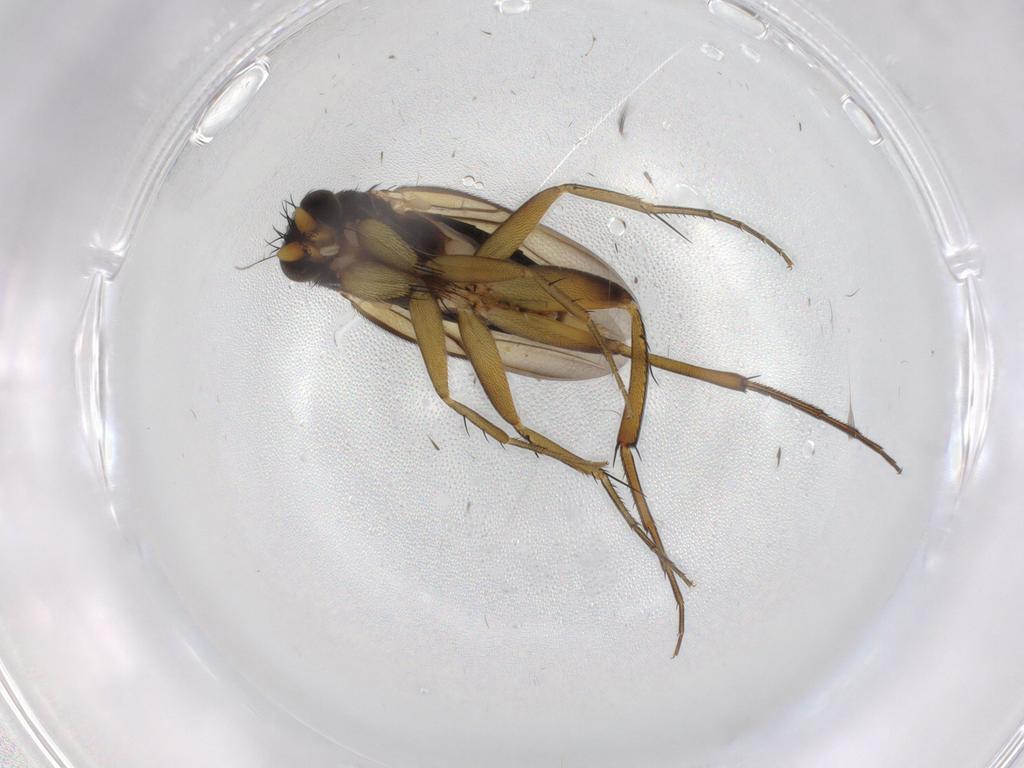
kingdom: Animalia
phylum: Arthropoda
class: Insecta
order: Diptera
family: Phoridae
